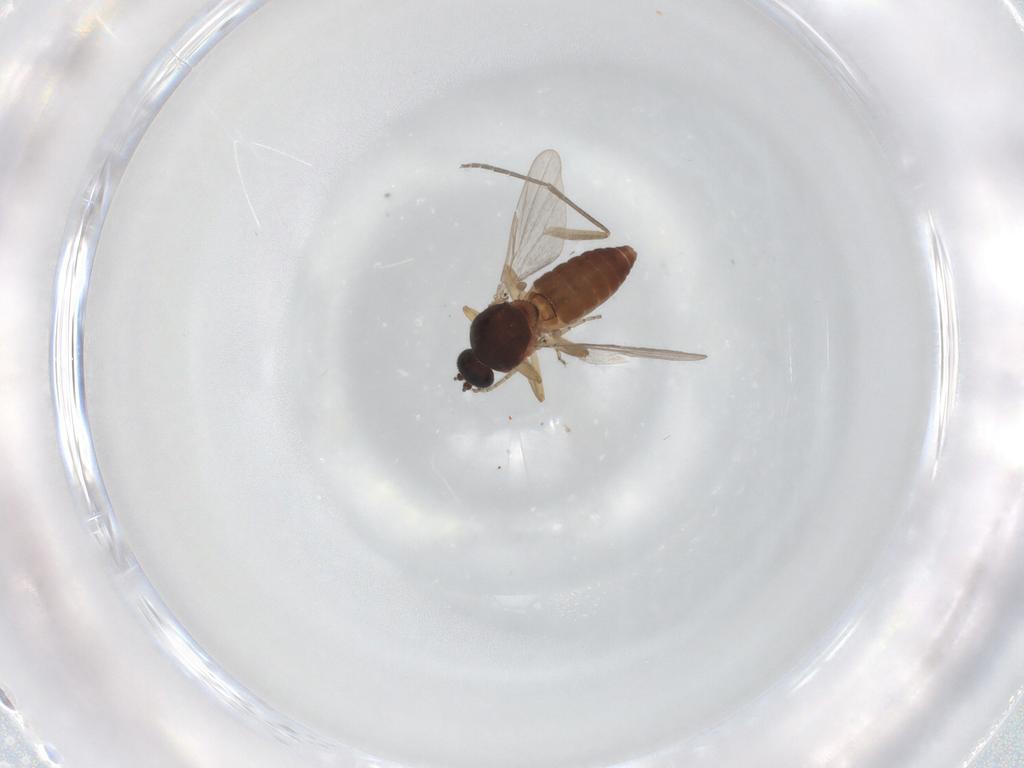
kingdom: Animalia
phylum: Arthropoda
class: Insecta
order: Diptera
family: Ceratopogonidae
